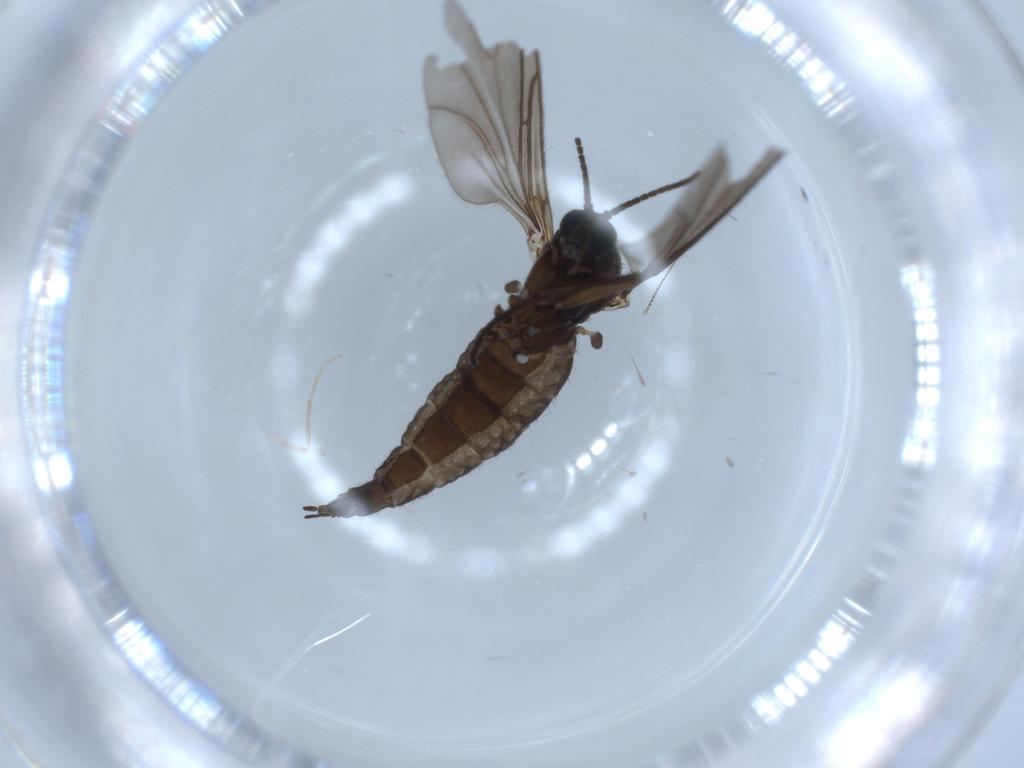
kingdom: Animalia
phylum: Arthropoda
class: Insecta
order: Diptera
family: Sciaridae
